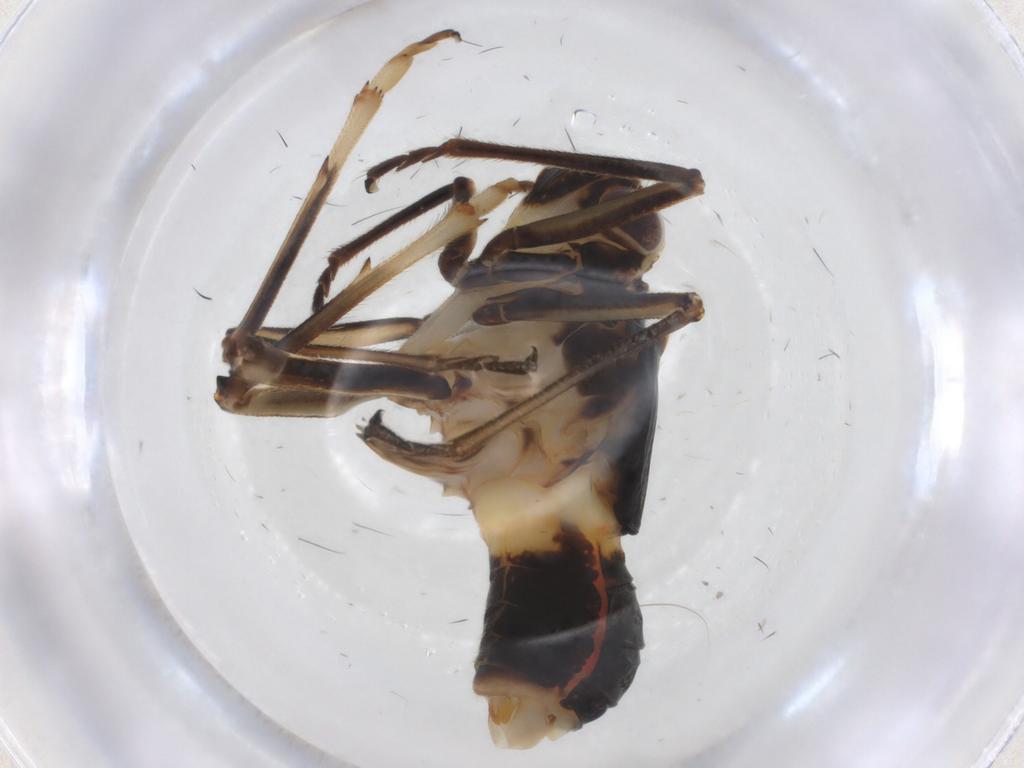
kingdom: Animalia
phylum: Arthropoda
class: Insecta
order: Hemiptera
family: Caliscelidae
